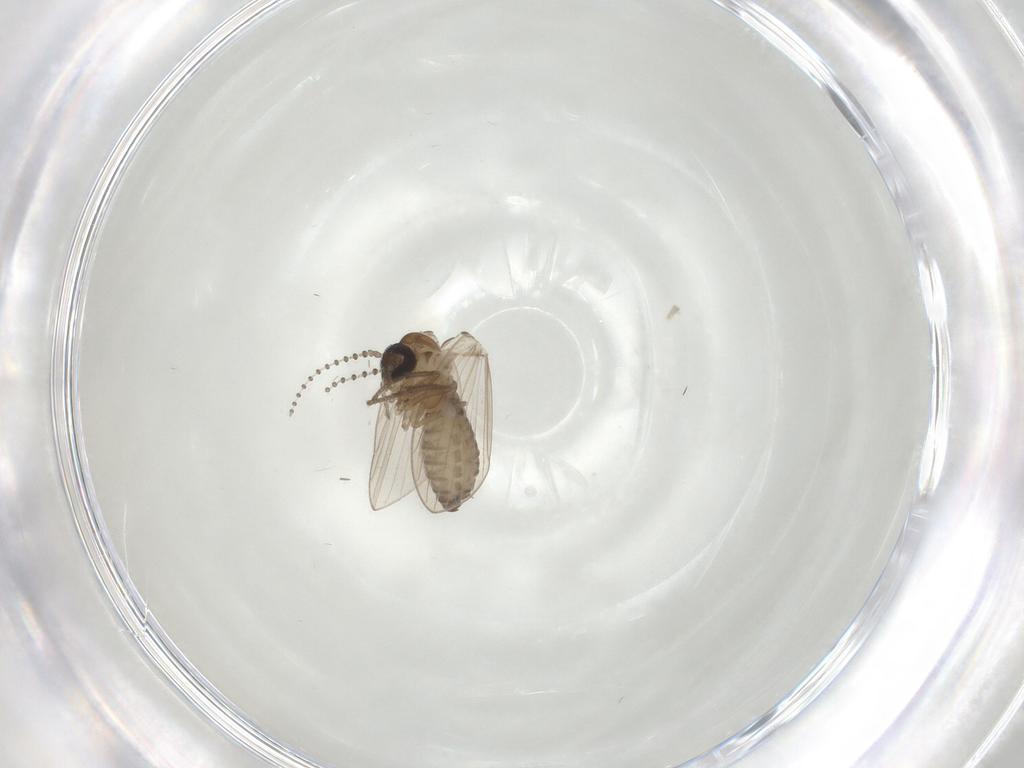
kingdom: Animalia
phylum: Arthropoda
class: Insecta
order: Diptera
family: Psychodidae
